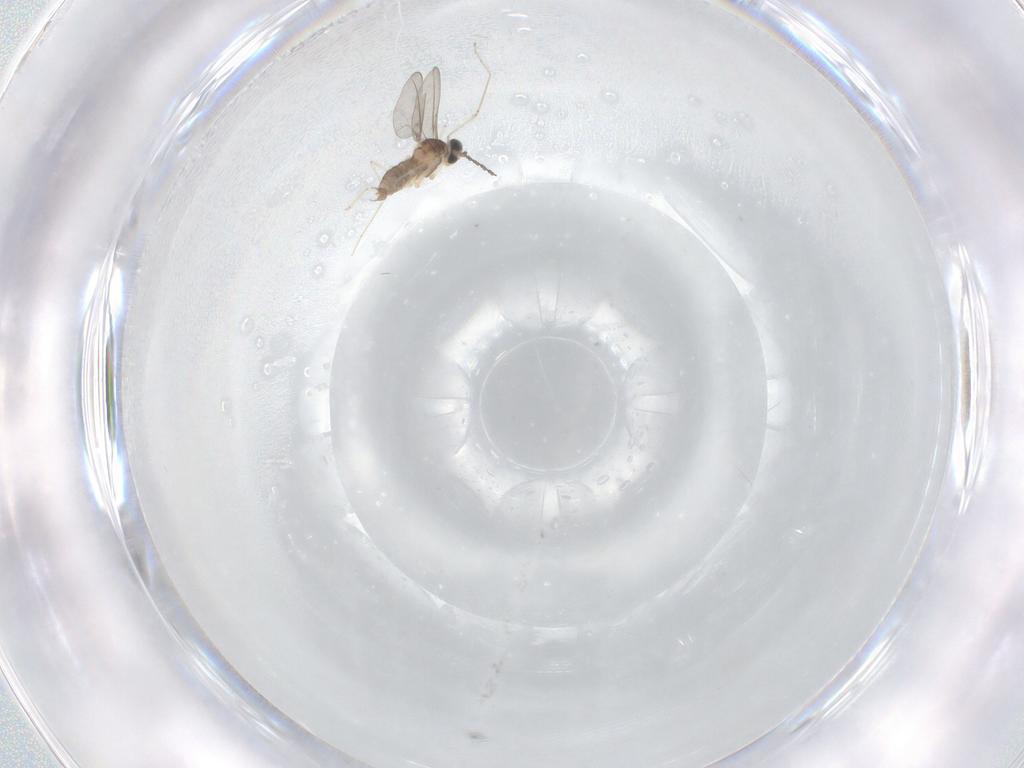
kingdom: Animalia
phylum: Arthropoda
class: Insecta
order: Diptera
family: Cecidomyiidae
